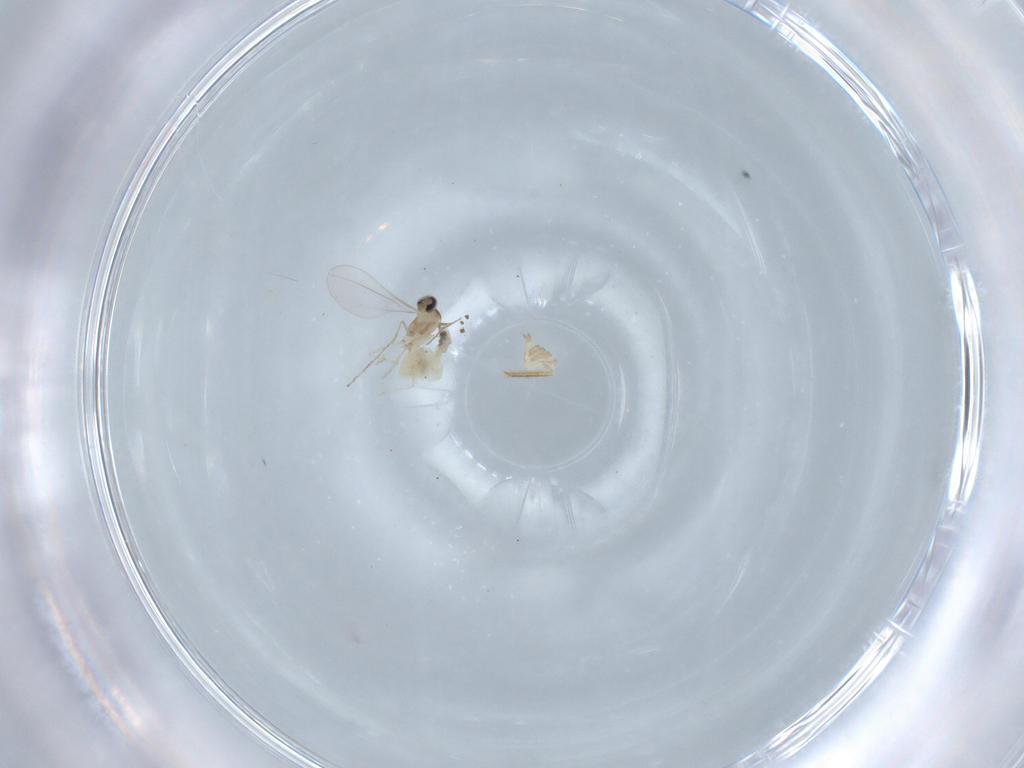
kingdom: Animalia
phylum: Arthropoda
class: Insecta
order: Diptera
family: Cecidomyiidae
